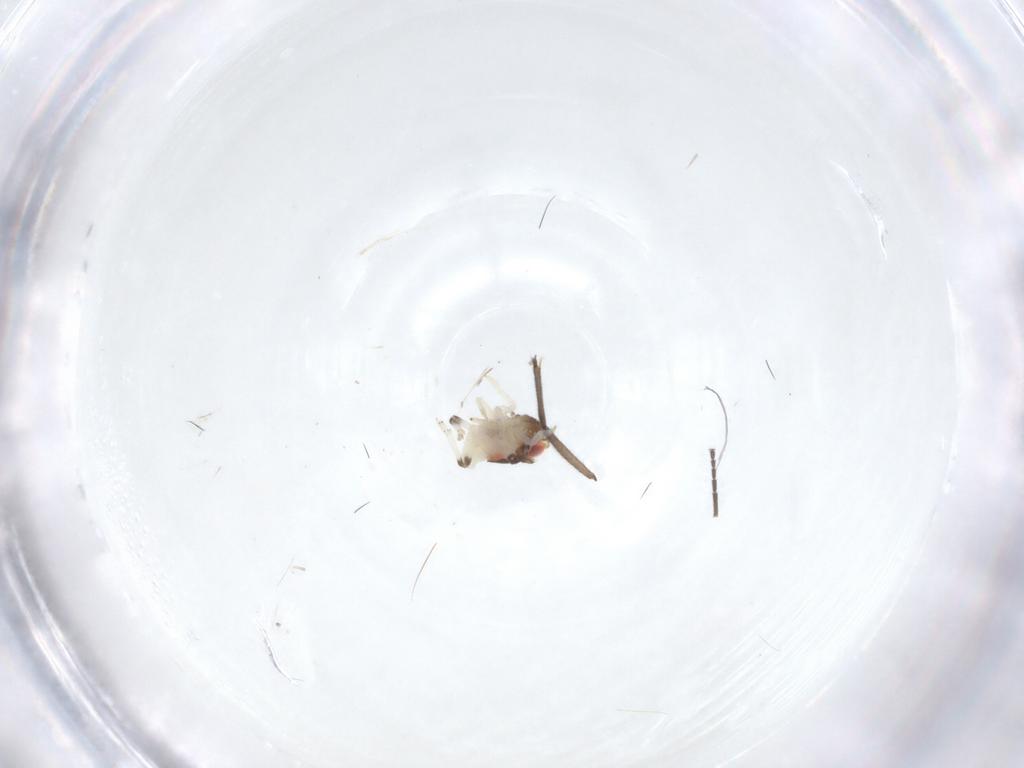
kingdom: Animalia
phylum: Arthropoda
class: Insecta
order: Hemiptera
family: Nogodinidae
